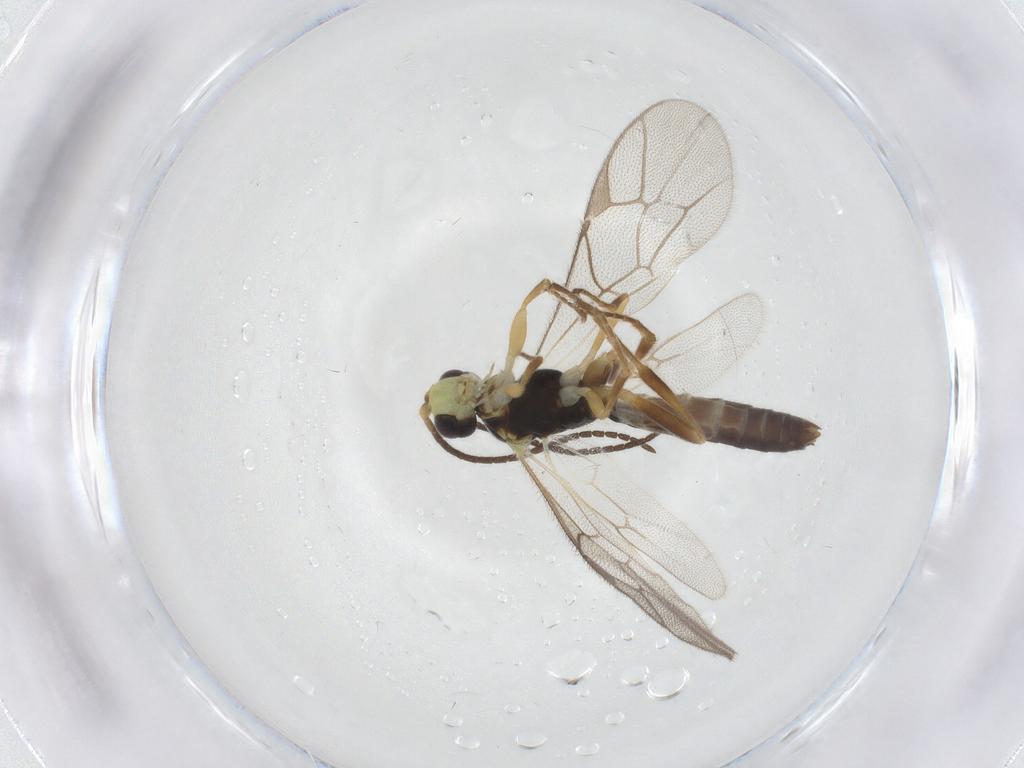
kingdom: Animalia
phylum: Arthropoda
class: Insecta
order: Hymenoptera
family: Ichneumonidae
